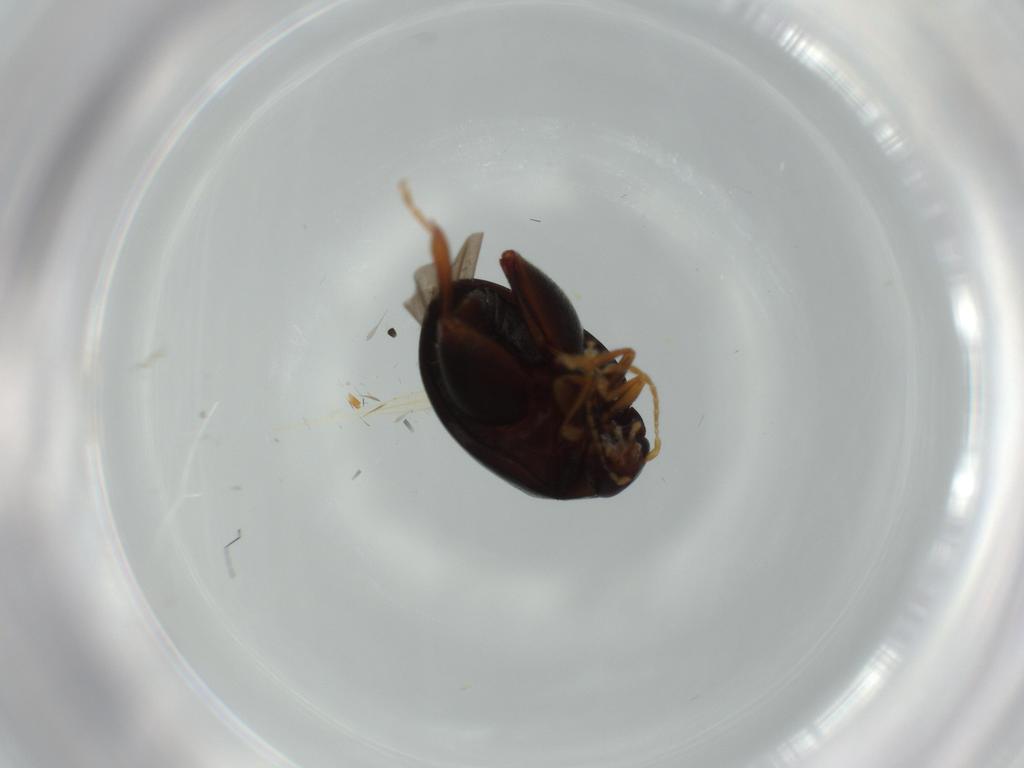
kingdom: Animalia
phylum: Arthropoda
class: Insecta
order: Coleoptera
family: Chrysomelidae
